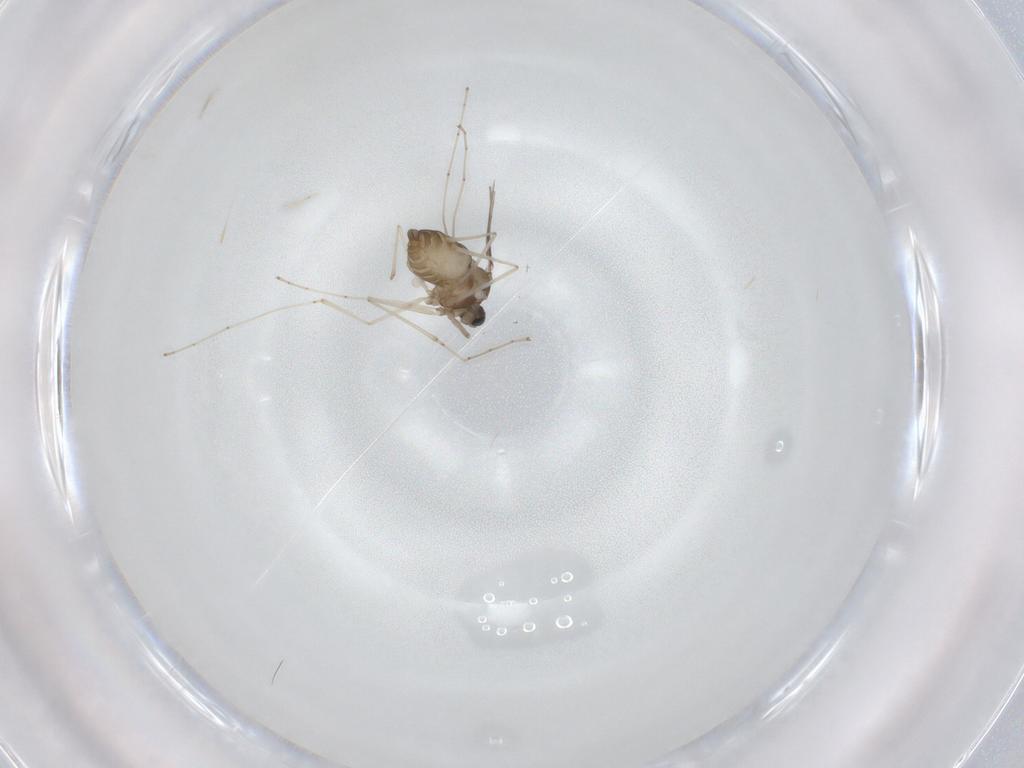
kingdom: Animalia
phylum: Arthropoda
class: Insecta
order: Diptera
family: Cecidomyiidae
